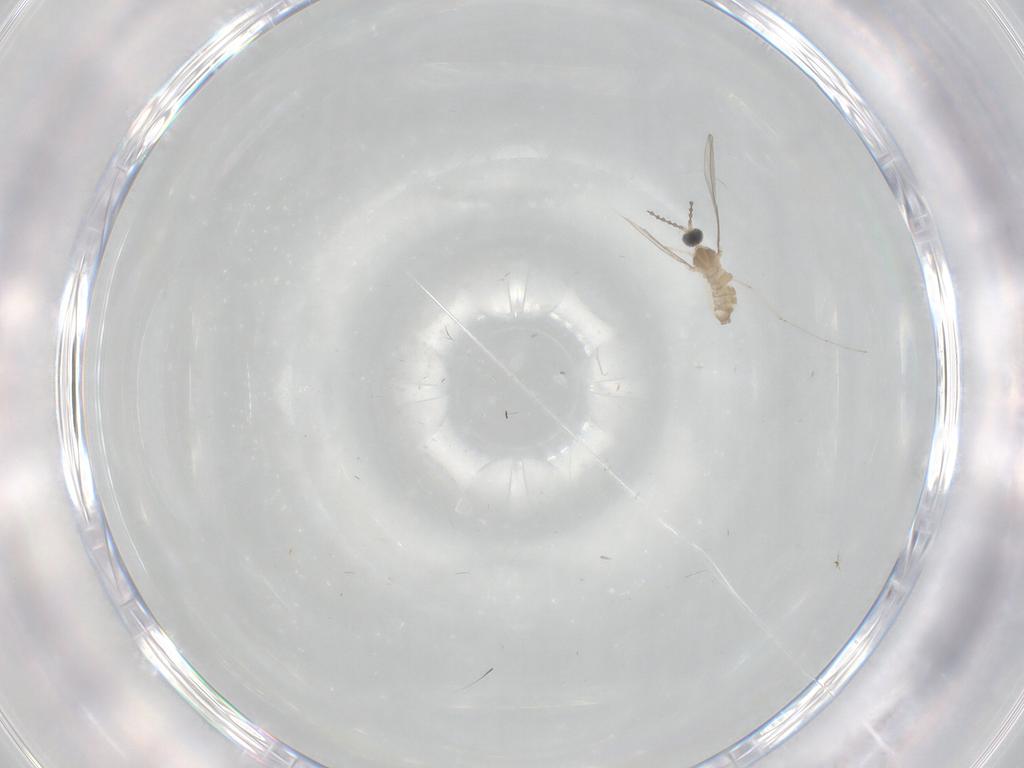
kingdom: Animalia
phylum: Arthropoda
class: Insecta
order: Diptera
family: Cecidomyiidae
